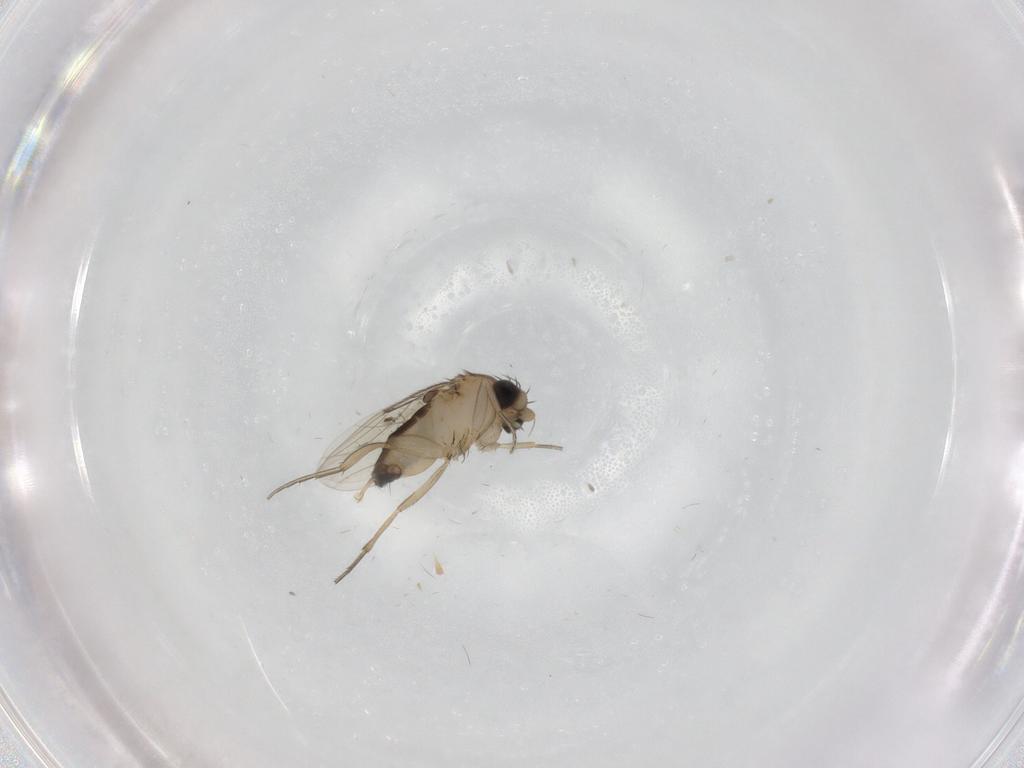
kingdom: Animalia
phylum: Arthropoda
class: Insecta
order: Diptera
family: Phoridae
